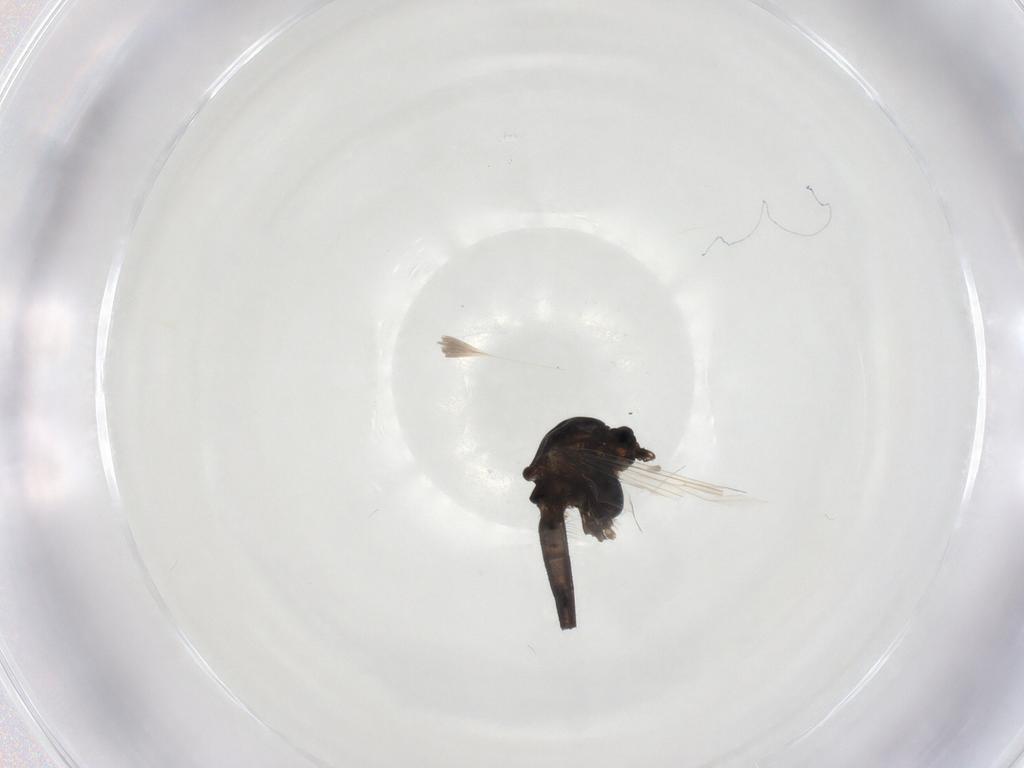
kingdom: Animalia
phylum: Arthropoda
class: Insecta
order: Diptera
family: Chironomidae
